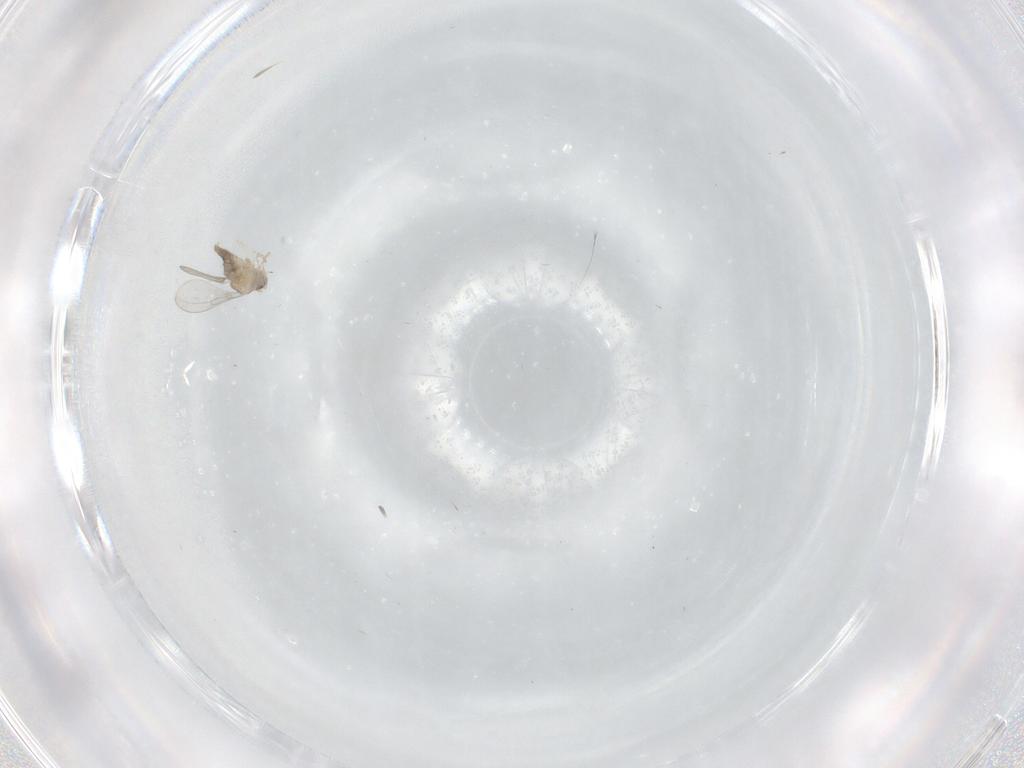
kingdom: Animalia
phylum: Arthropoda
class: Insecta
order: Diptera
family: Cecidomyiidae
